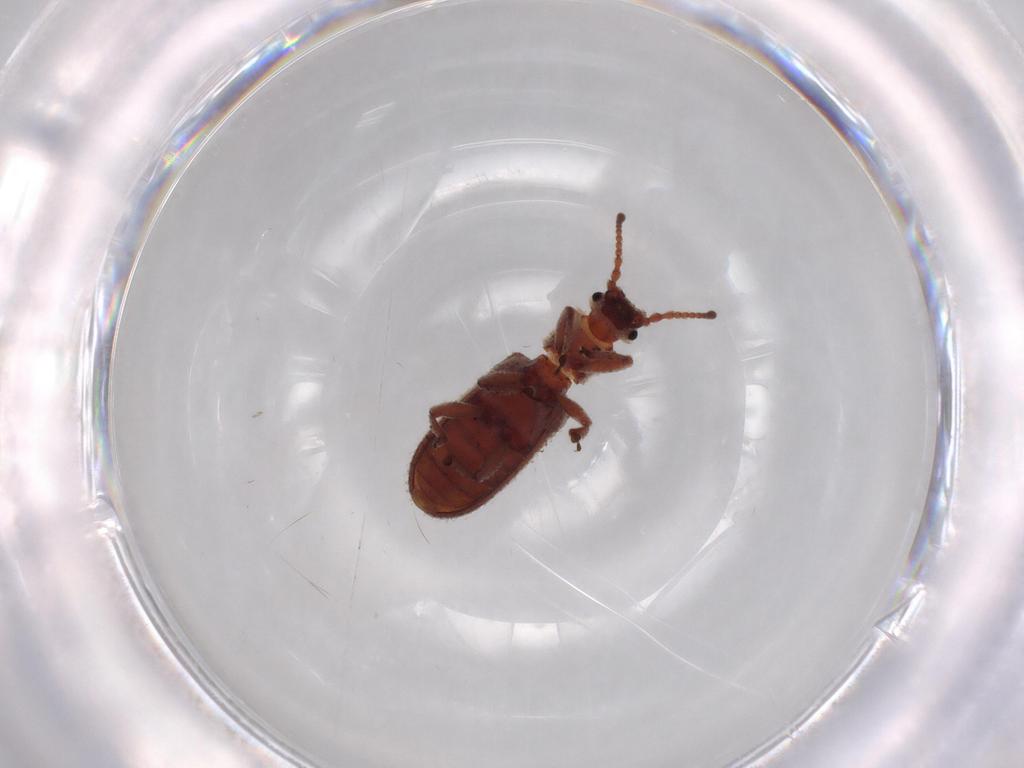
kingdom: Animalia
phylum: Arthropoda
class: Insecta
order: Coleoptera
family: Zopheridae
